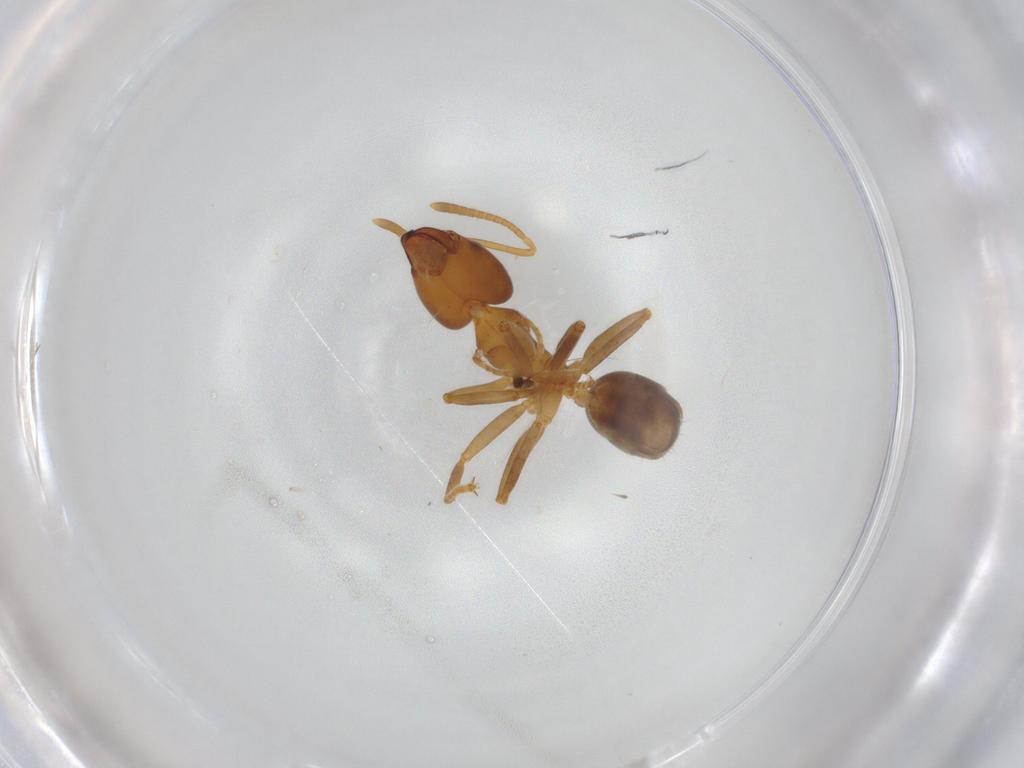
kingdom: Animalia
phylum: Arthropoda
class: Insecta
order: Hymenoptera
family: Formicidae
